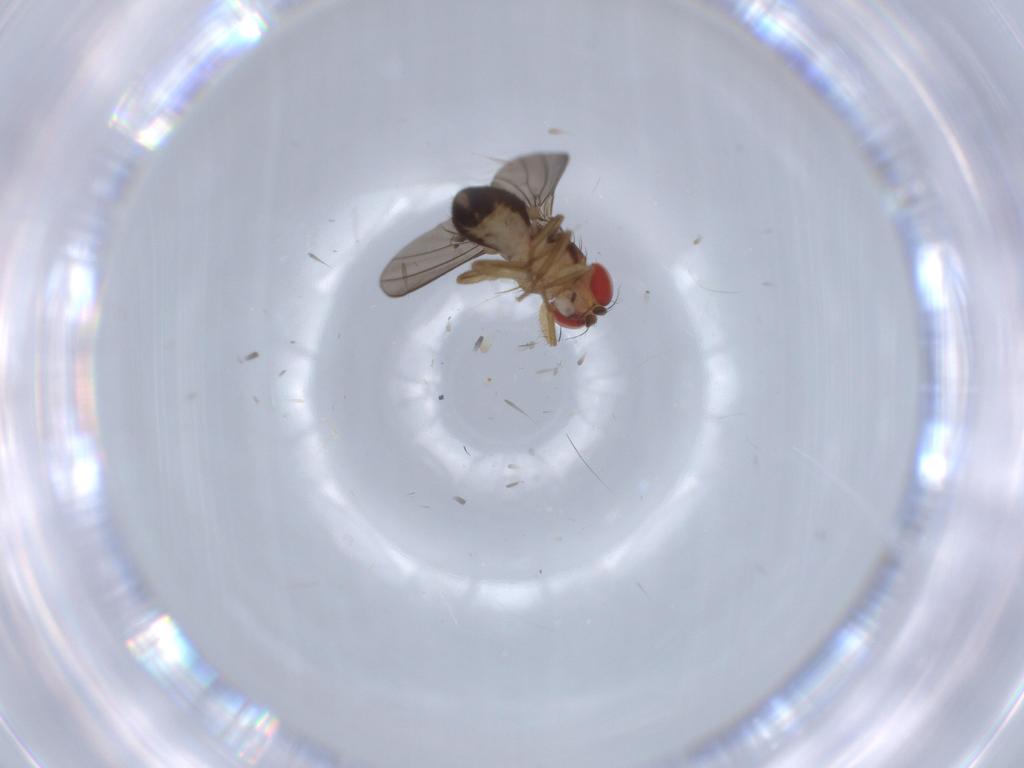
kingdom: Animalia
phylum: Arthropoda
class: Insecta
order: Diptera
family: Drosophilidae
